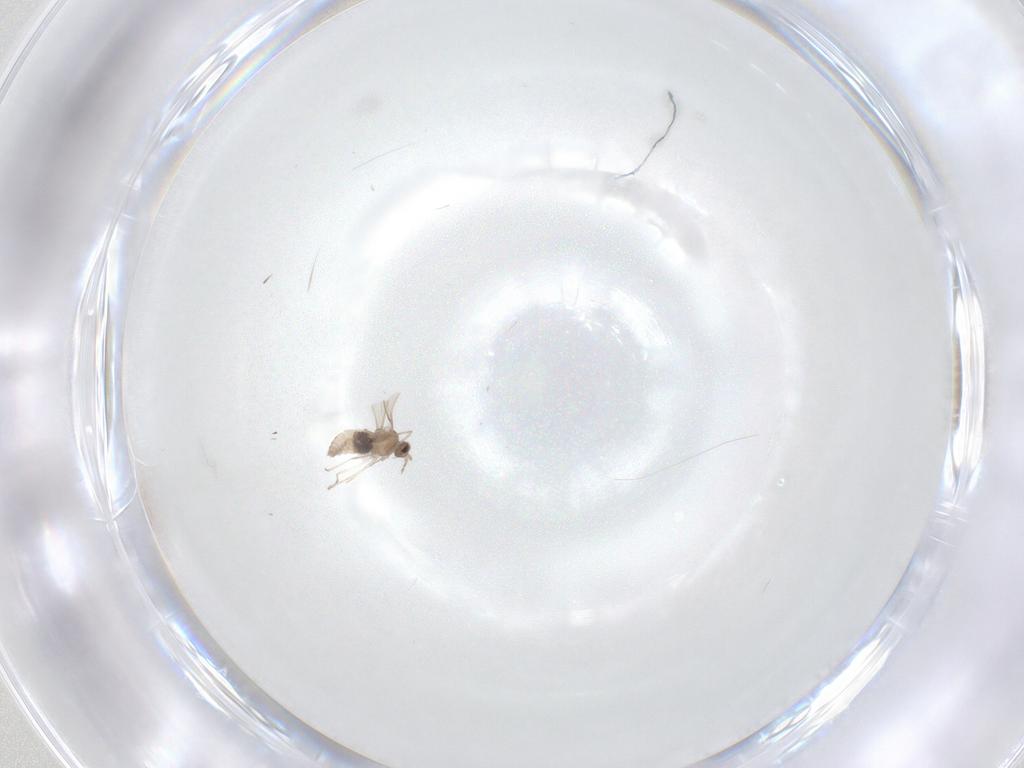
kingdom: Animalia
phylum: Arthropoda
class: Insecta
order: Diptera
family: Cecidomyiidae
